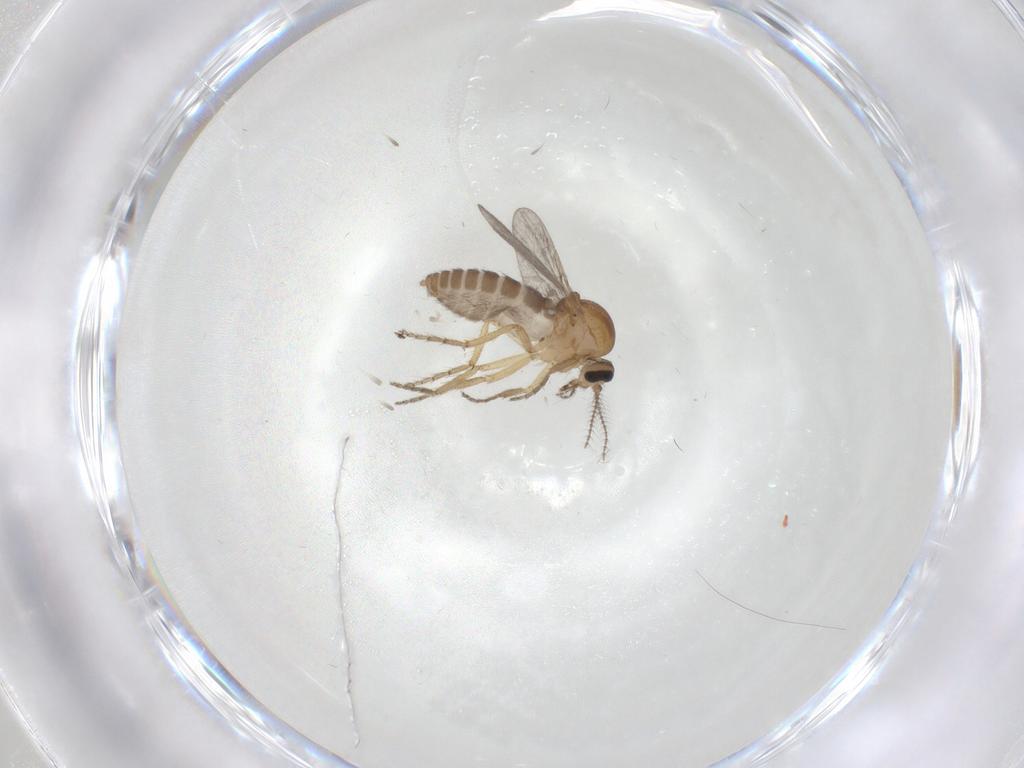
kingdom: Animalia
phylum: Arthropoda
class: Insecta
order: Diptera
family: Ceratopogonidae
